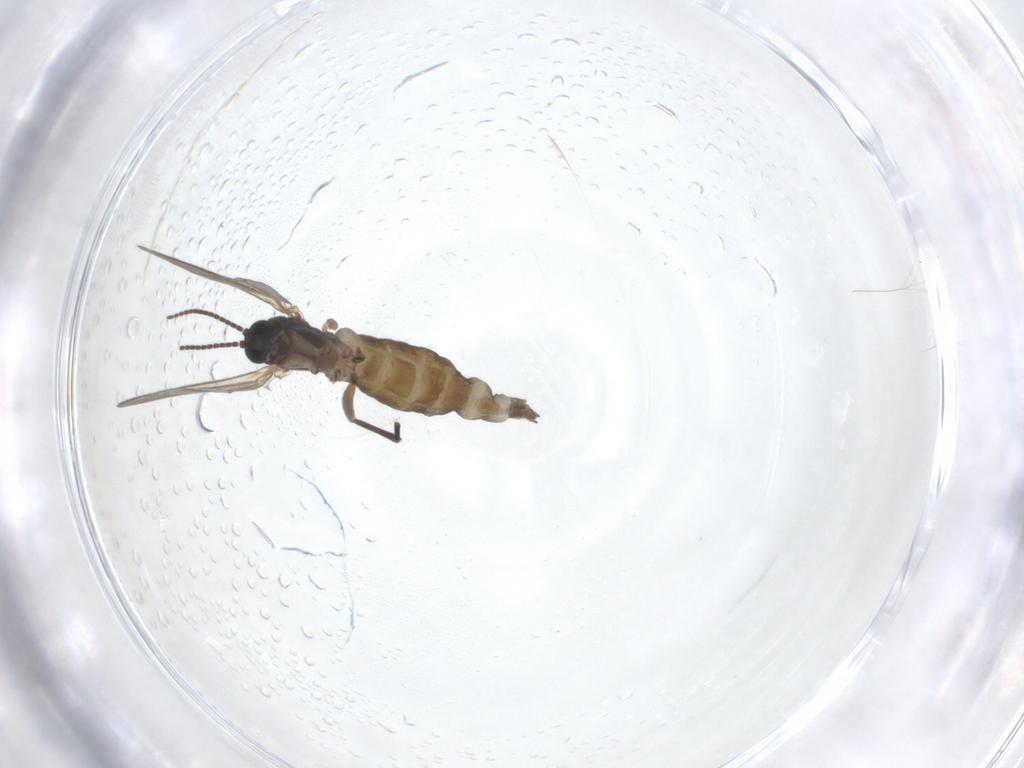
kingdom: Animalia
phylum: Arthropoda
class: Insecta
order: Diptera
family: Sciaridae
